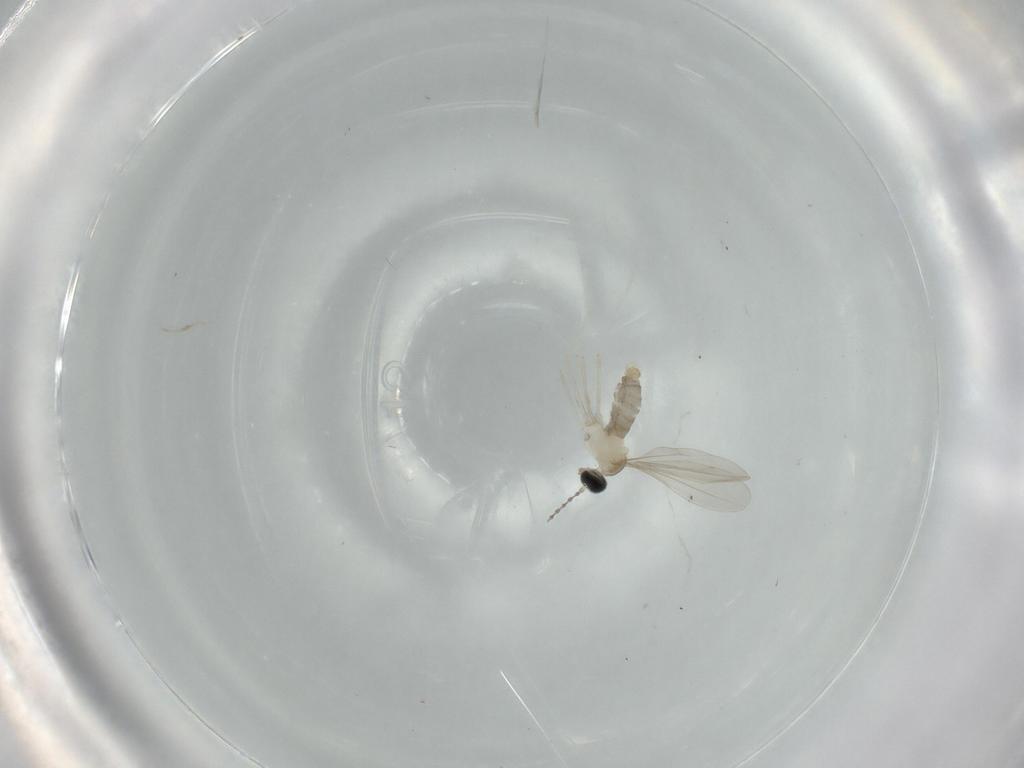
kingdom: Animalia
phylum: Arthropoda
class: Insecta
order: Diptera
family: Cecidomyiidae
